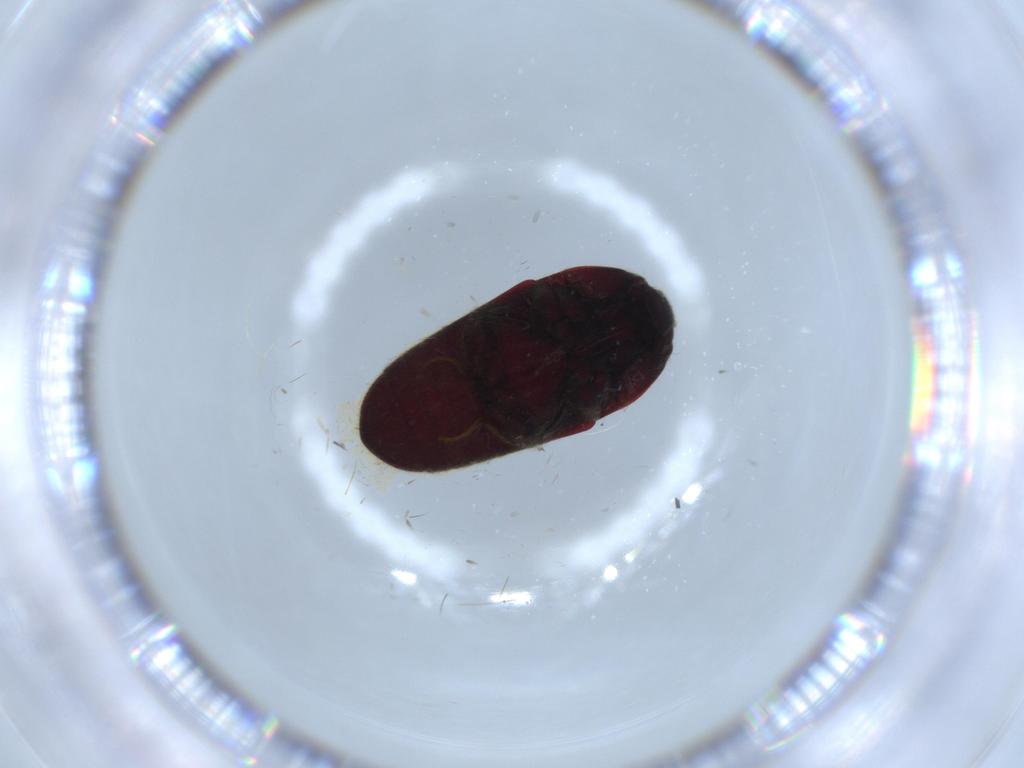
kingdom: Animalia
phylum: Arthropoda
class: Insecta
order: Coleoptera
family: Throscidae
